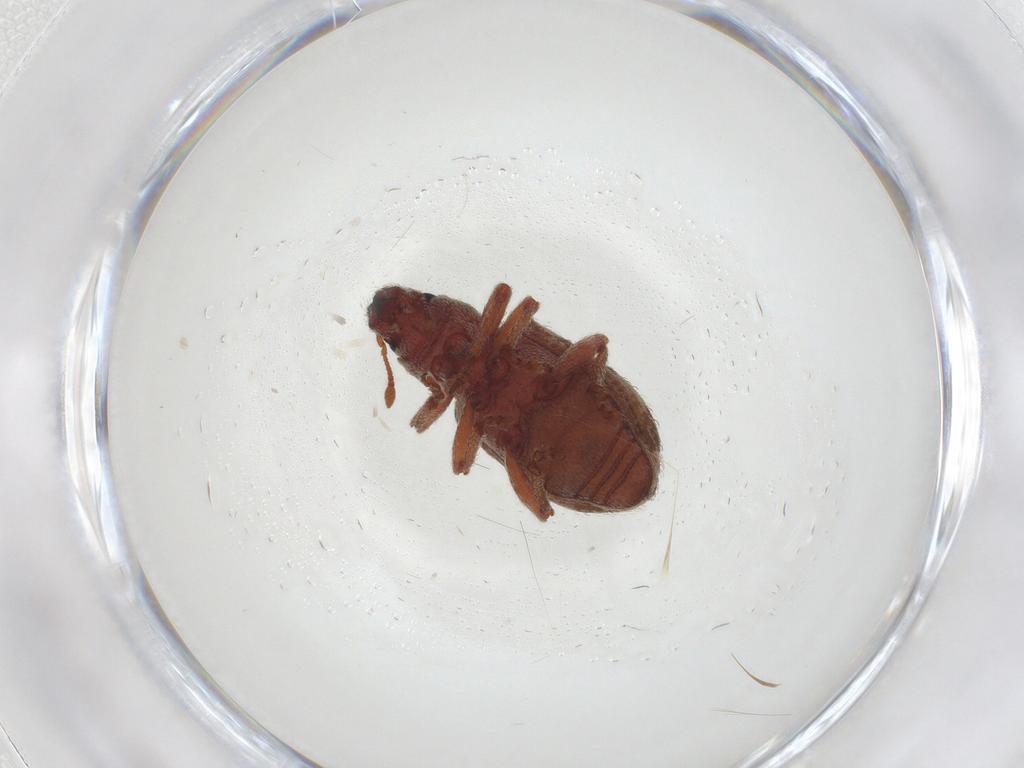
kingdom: Animalia
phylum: Arthropoda
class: Insecta
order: Coleoptera
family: Curculionidae
